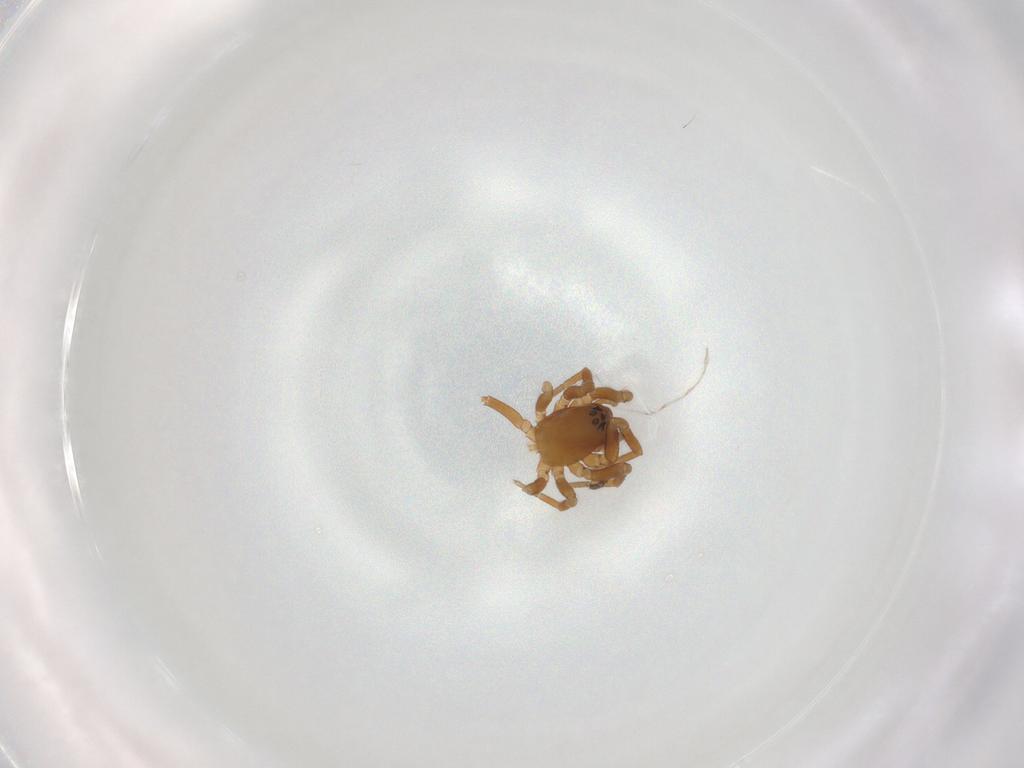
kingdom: Animalia
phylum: Arthropoda
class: Arachnida
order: Araneae
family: Linyphiidae
